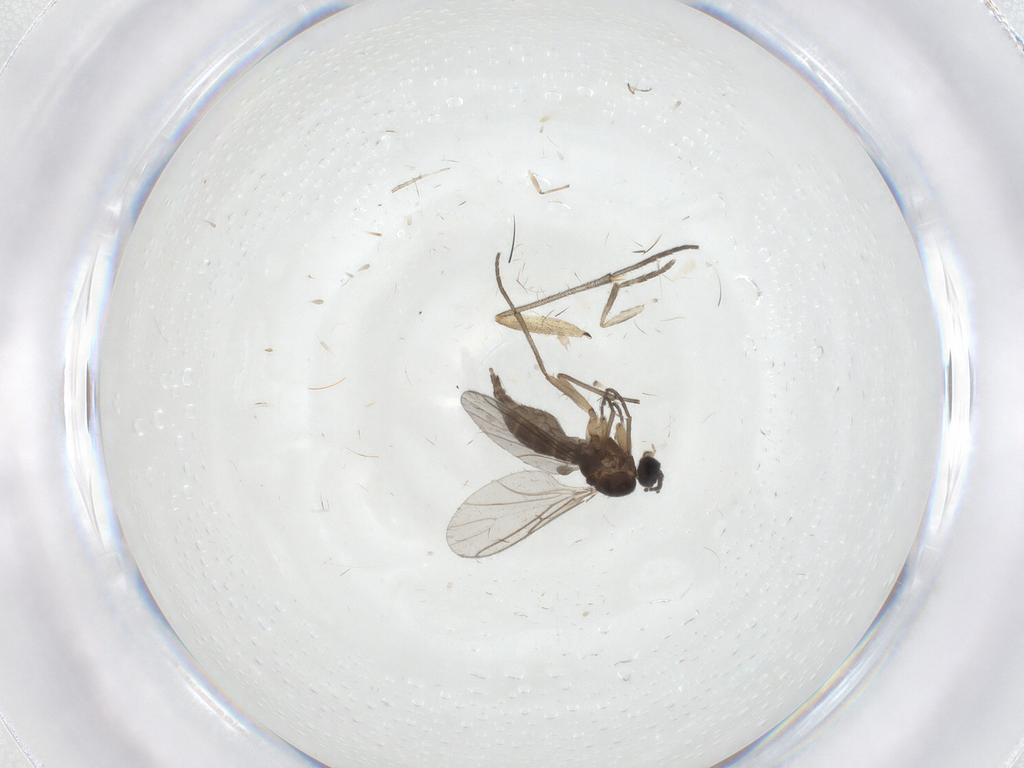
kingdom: Animalia
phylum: Arthropoda
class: Insecta
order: Diptera
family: Sciaridae
